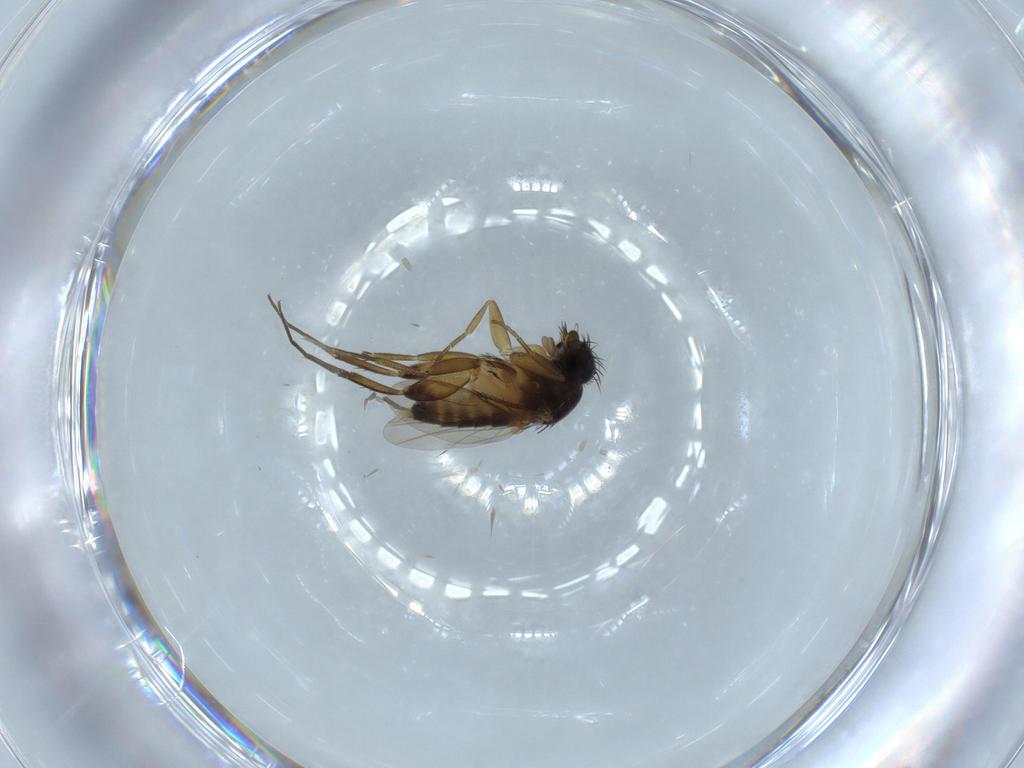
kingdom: Animalia
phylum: Arthropoda
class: Insecta
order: Diptera
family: Phoridae
